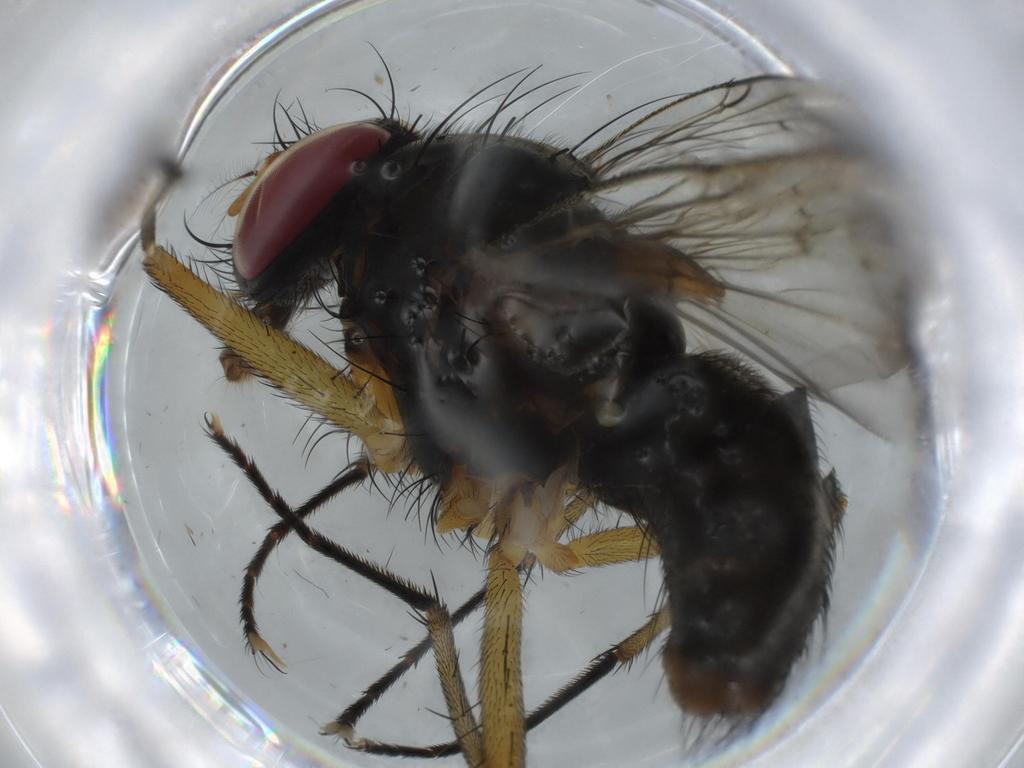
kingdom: Animalia
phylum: Arthropoda
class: Insecta
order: Diptera
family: Muscidae
